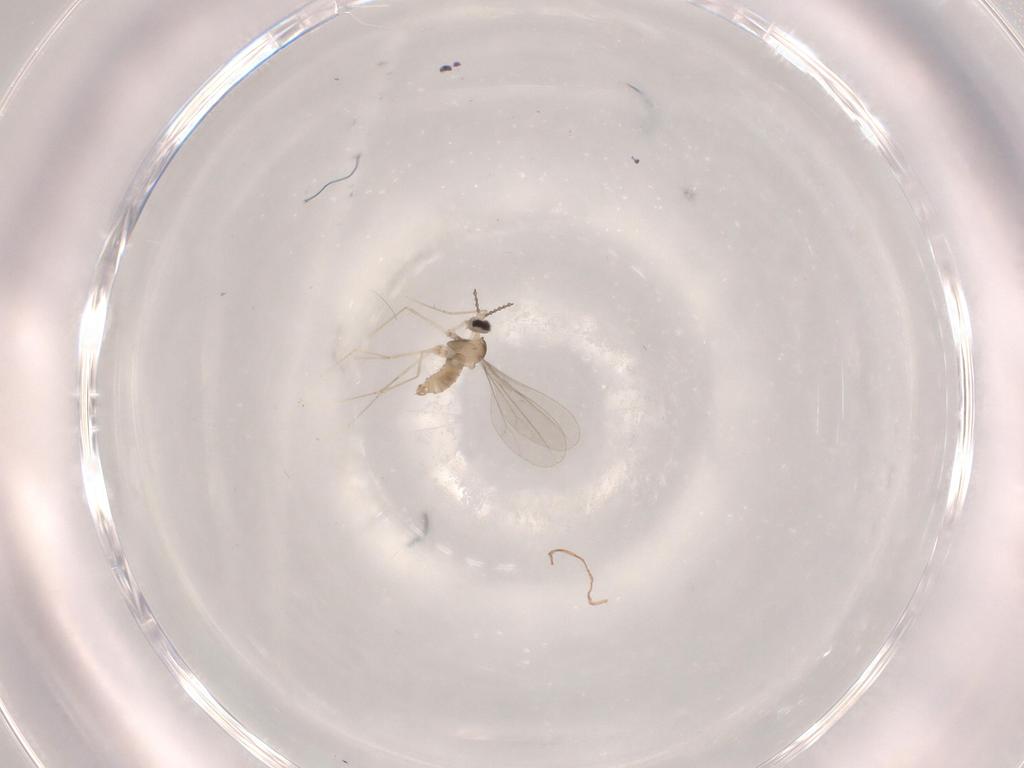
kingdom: Animalia
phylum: Arthropoda
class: Insecta
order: Diptera
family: Cecidomyiidae
